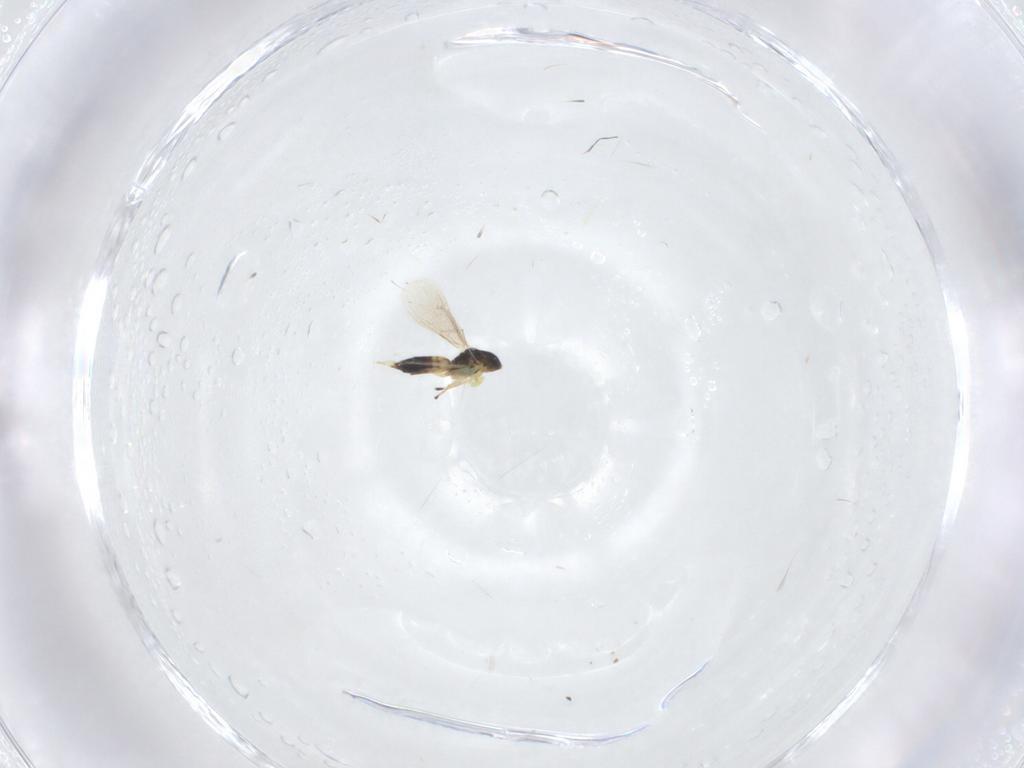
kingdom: Animalia
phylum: Arthropoda
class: Insecta
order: Hymenoptera
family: Eulophidae
